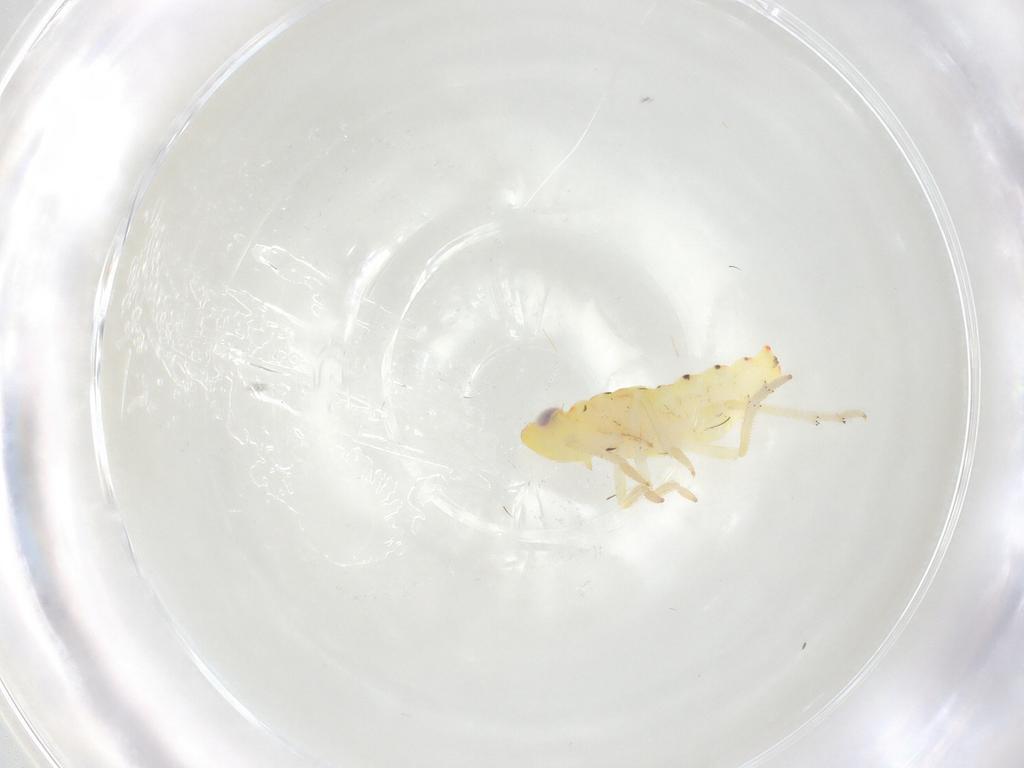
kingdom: Animalia
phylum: Arthropoda
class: Insecta
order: Hemiptera
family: Tropiduchidae
